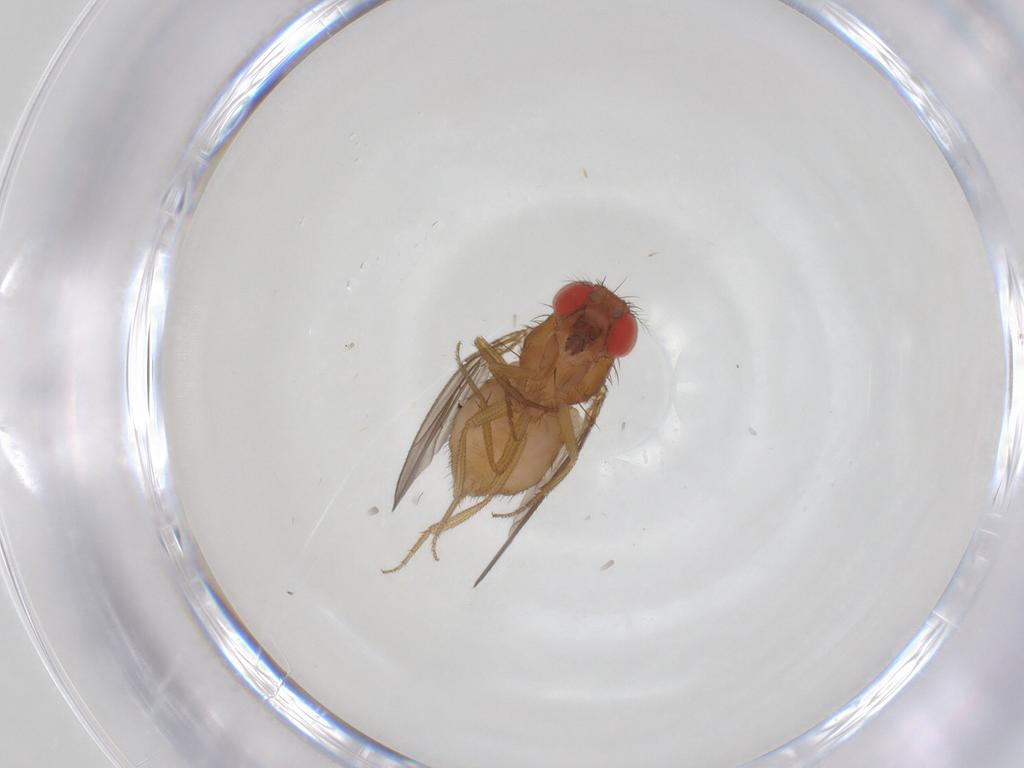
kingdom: Animalia
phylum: Arthropoda
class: Insecta
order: Diptera
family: Drosophilidae
